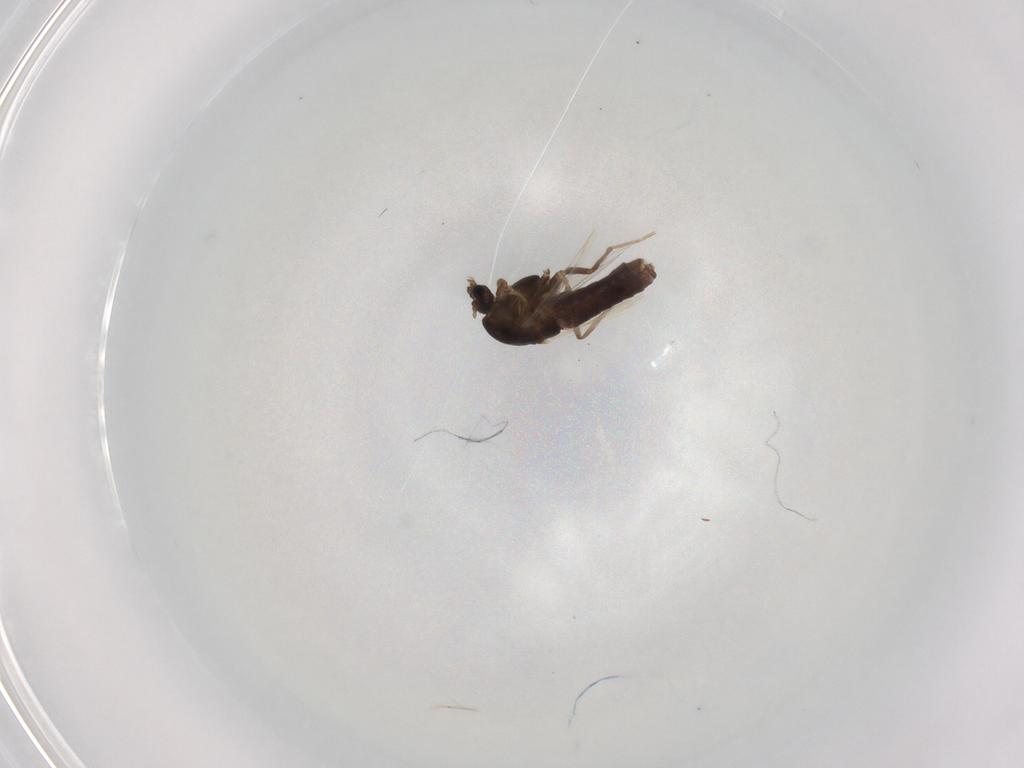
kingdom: Animalia
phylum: Arthropoda
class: Insecta
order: Diptera
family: Chironomidae
